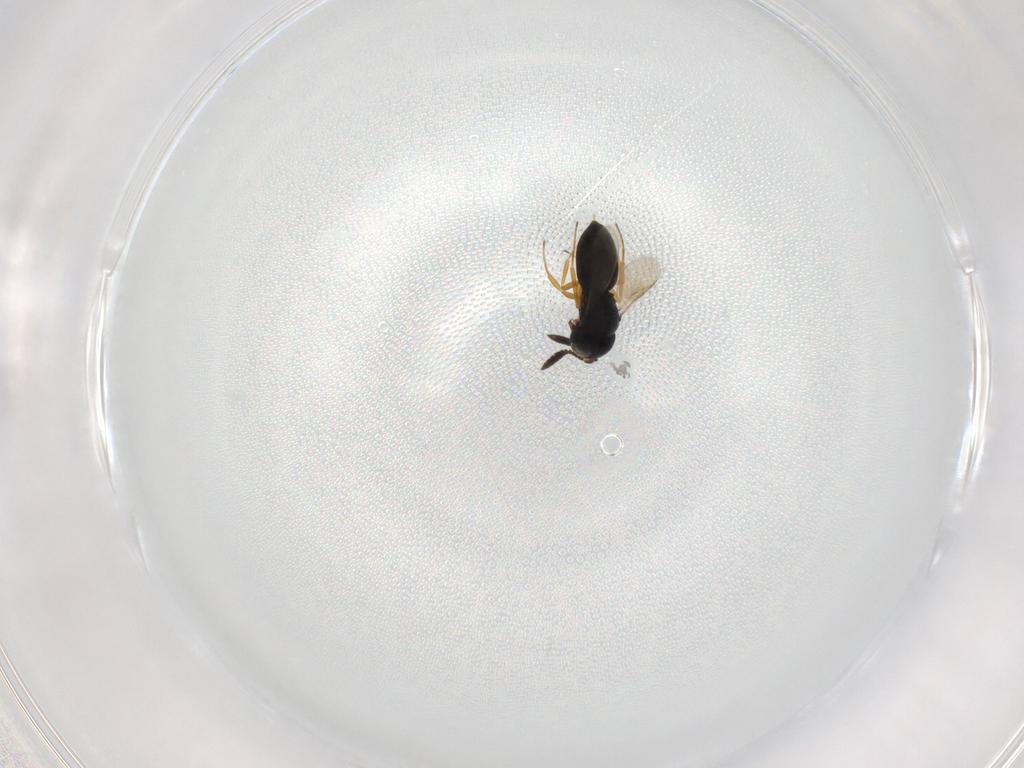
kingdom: Animalia
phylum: Arthropoda
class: Insecta
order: Hymenoptera
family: Scelionidae
